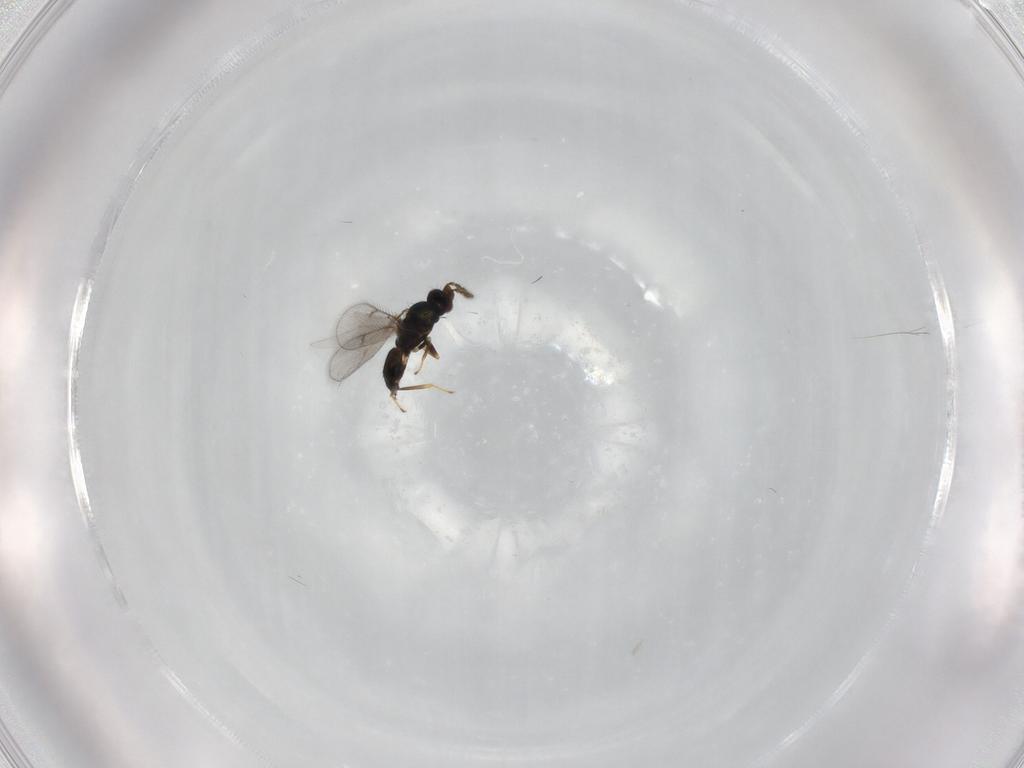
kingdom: Animalia
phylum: Arthropoda
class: Insecta
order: Hymenoptera
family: Eulophidae
